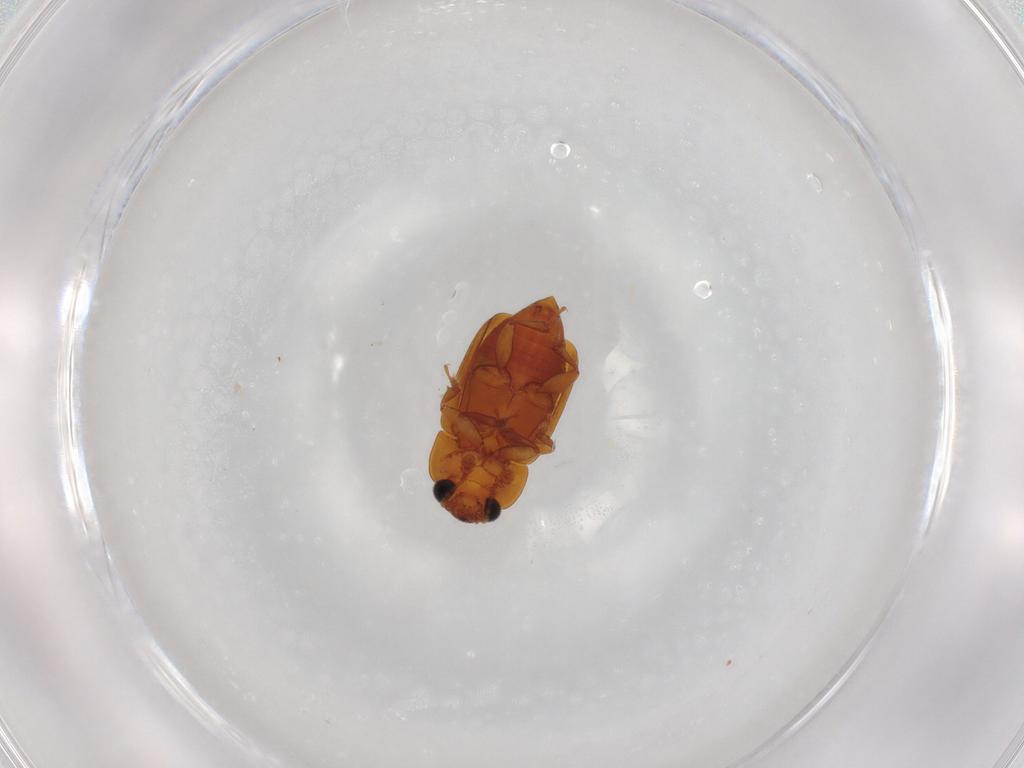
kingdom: Animalia
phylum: Arthropoda
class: Insecta
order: Coleoptera
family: Nitidulidae
